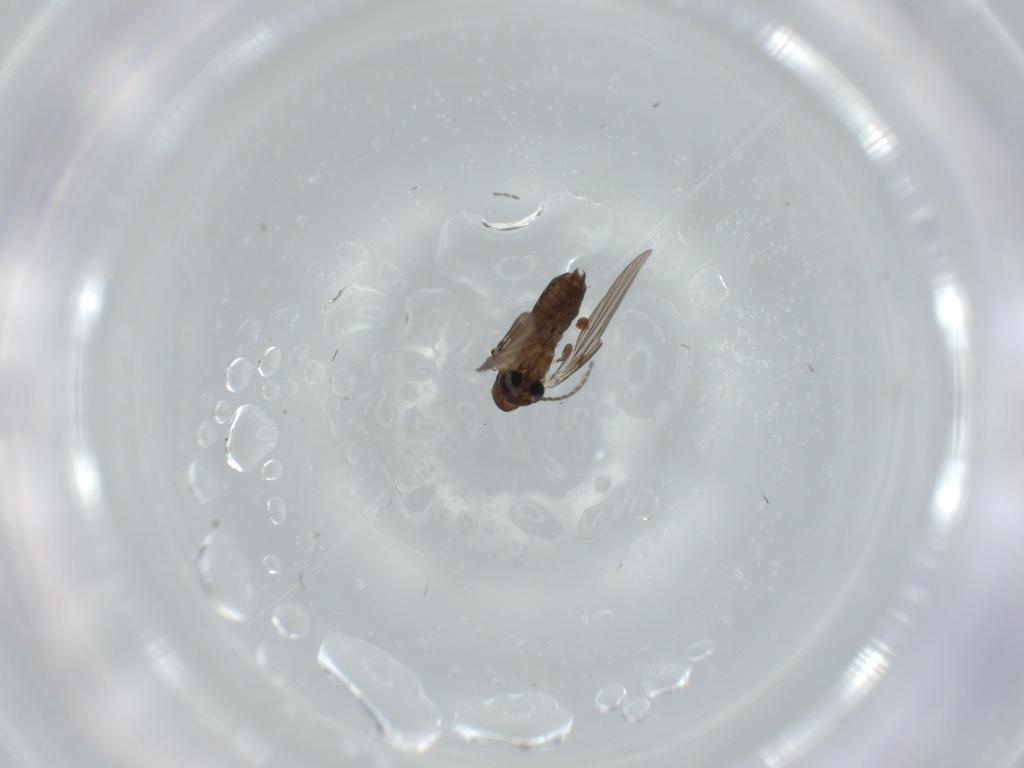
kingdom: Animalia
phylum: Arthropoda
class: Insecta
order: Diptera
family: Psychodidae
